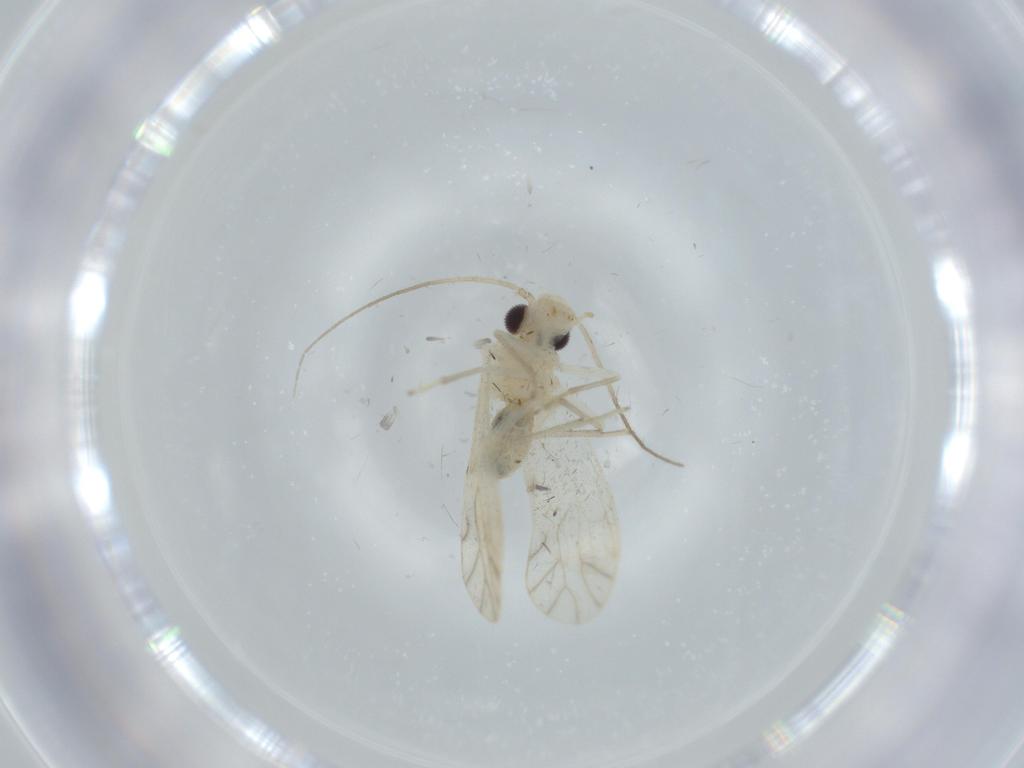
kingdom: Animalia
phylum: Arthropoda
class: Insecta
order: Psocodea
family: Caeciliusidae
